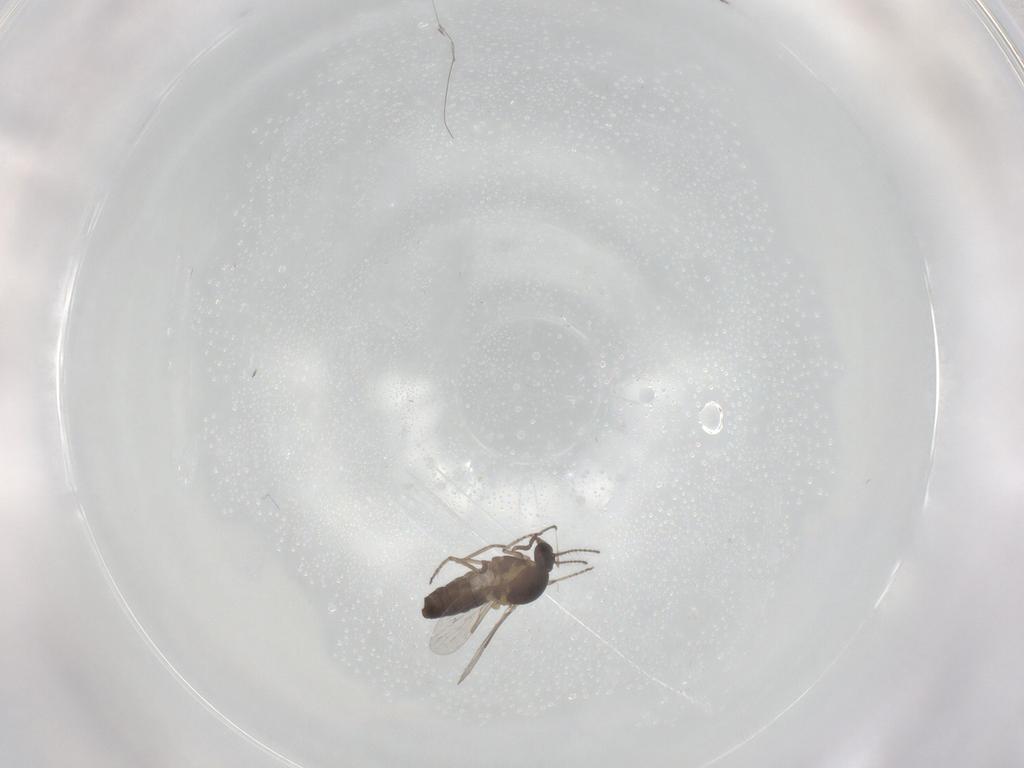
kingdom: Animalia
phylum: Arthropoda
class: Insecta
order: Diptera
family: Ceratopogonidae
